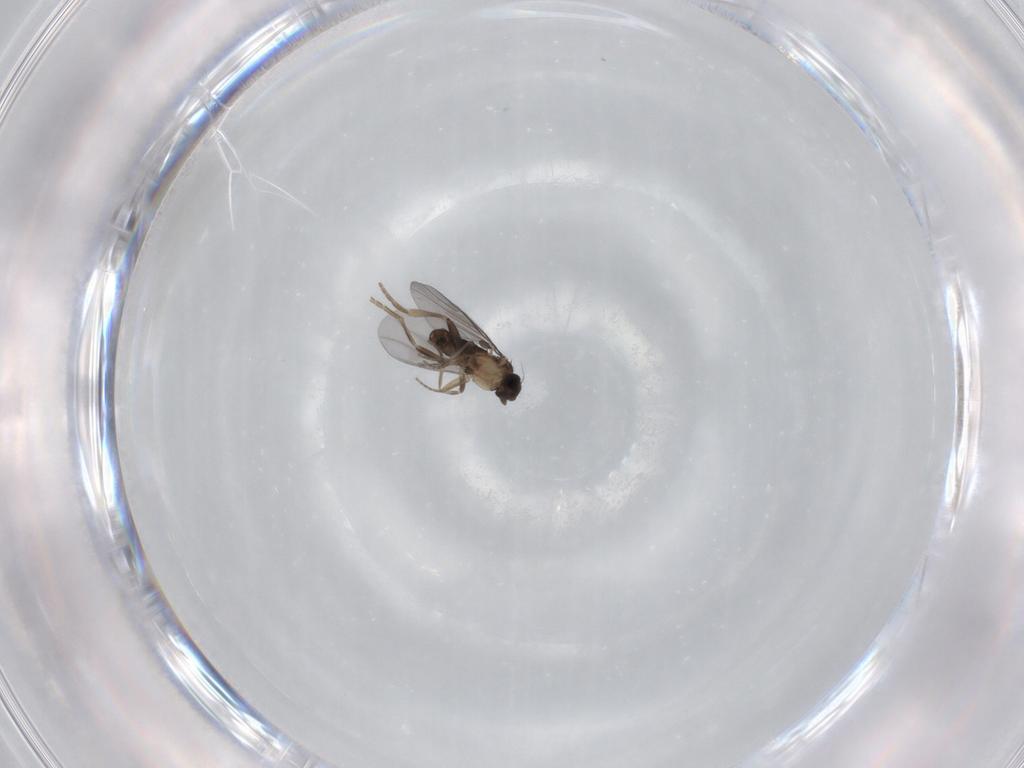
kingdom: Animalia
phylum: Arthropoda
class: Insecta
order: Diptera
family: Phoridae
